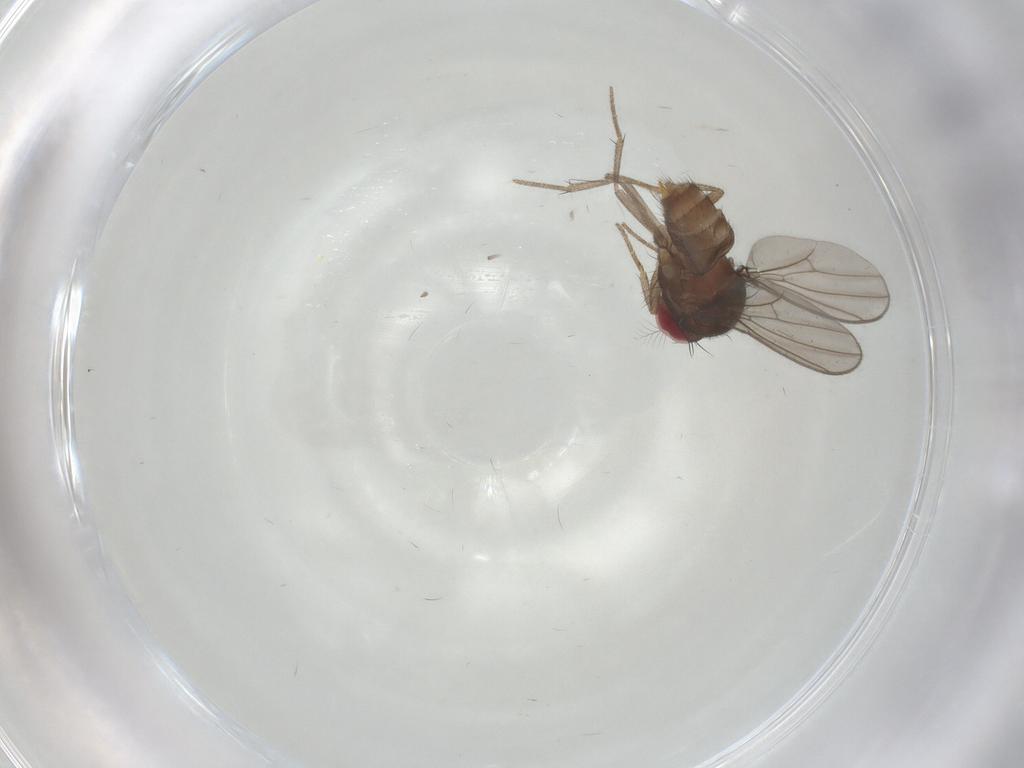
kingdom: Animalia
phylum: Arthropoda
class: Insecta
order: Diptera
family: Drosophilidae
